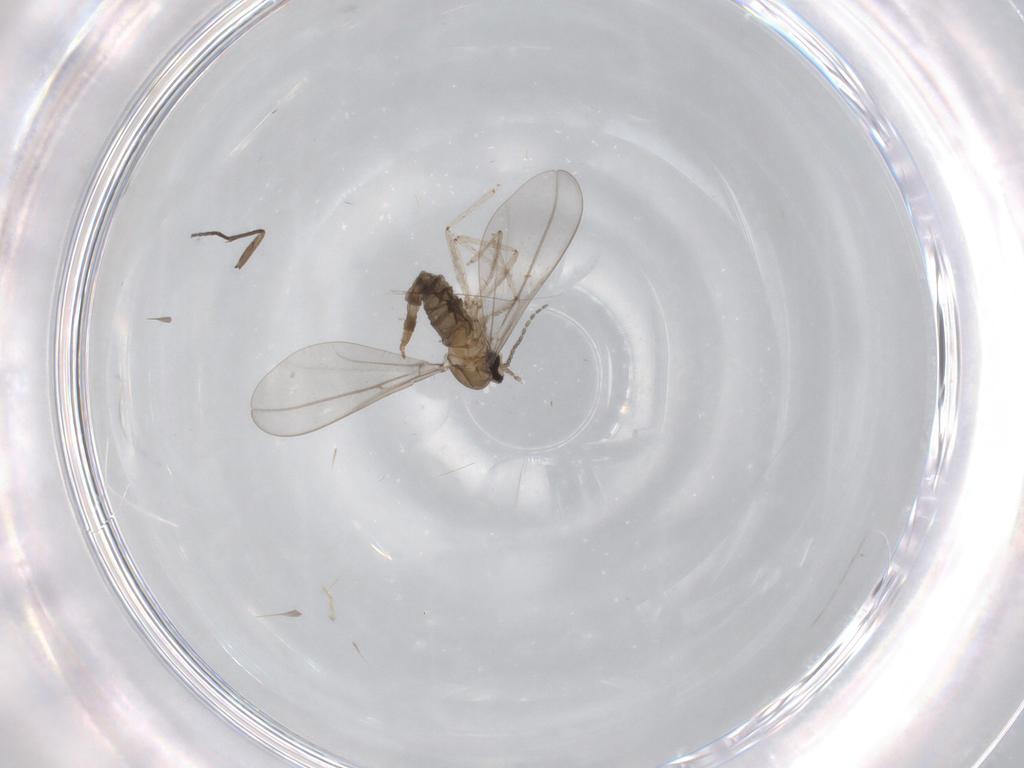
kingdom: Animalia
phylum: Arthropoda
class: Insecta
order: Diptera
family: Cecidomyiidae
